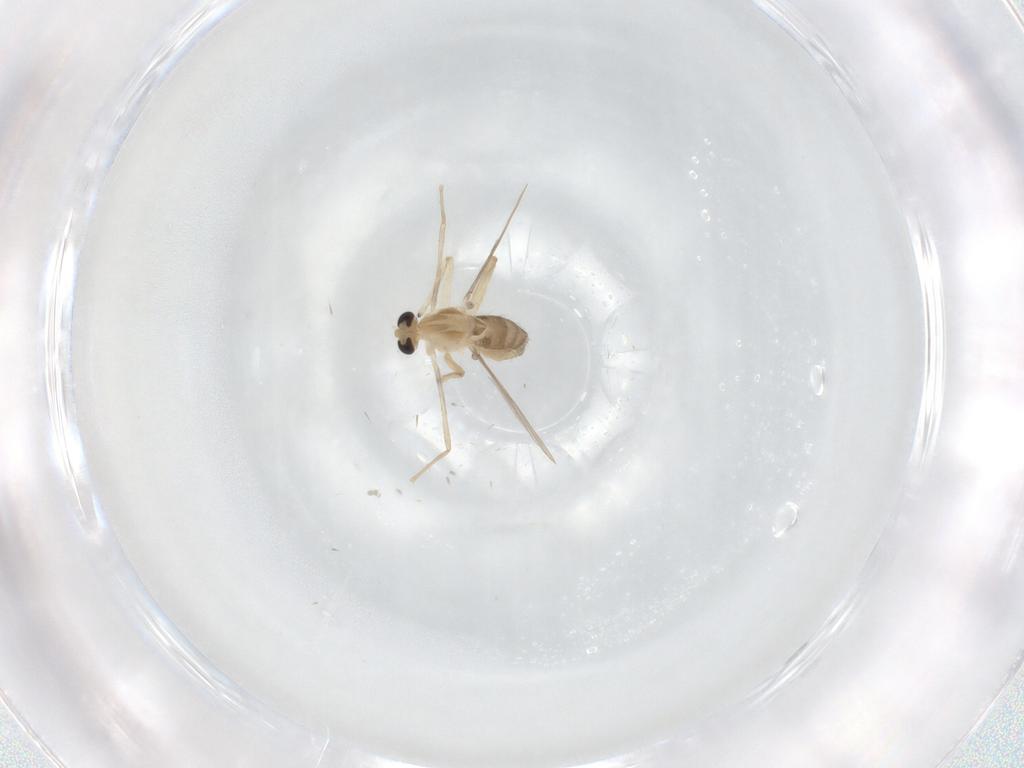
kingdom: Animalia
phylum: Arthropoda
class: Insecta
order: Diptera
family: Chironomidae
